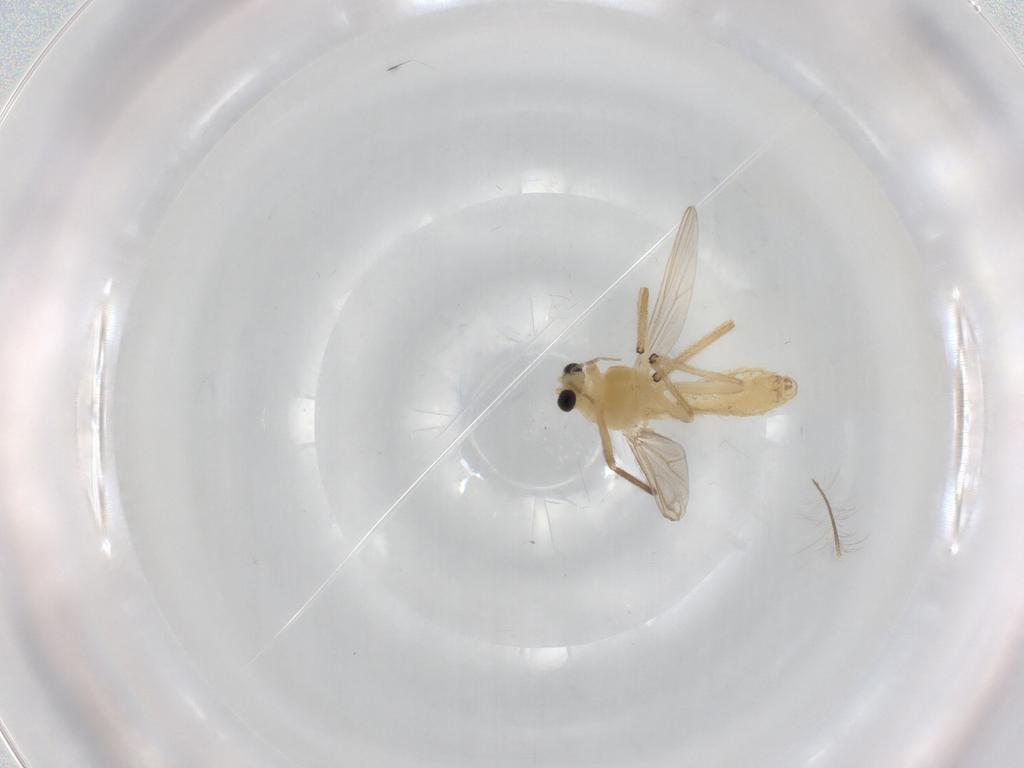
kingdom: Animalia
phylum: Arthropoda
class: Insecta
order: Diptera
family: Chironomidae
